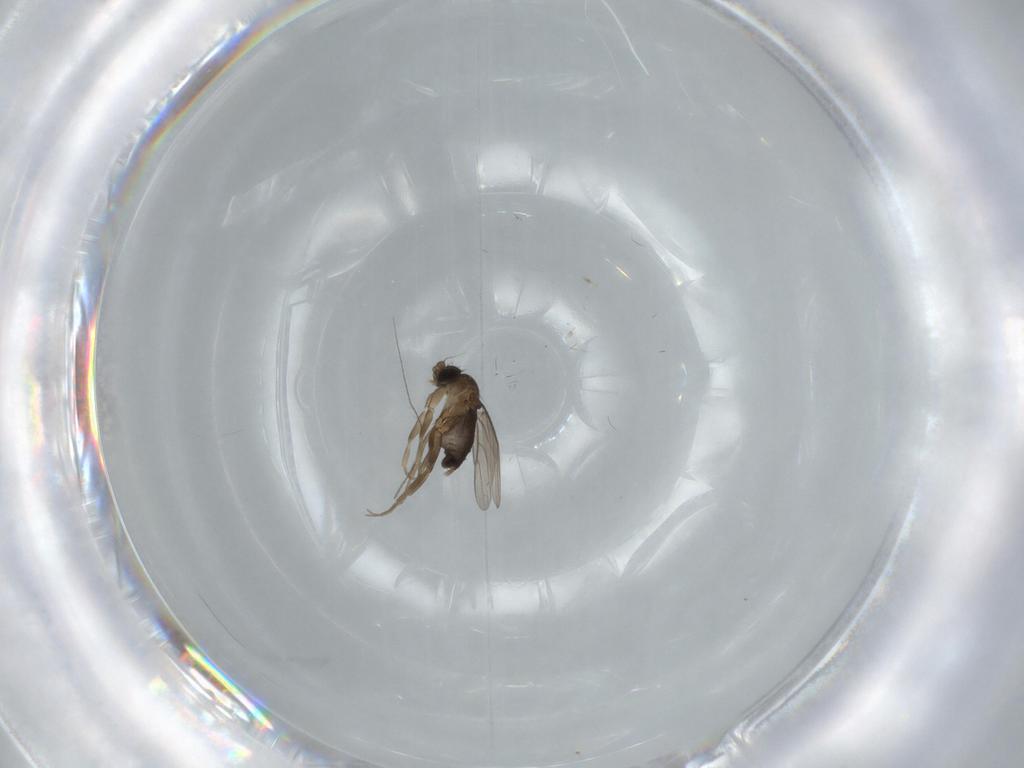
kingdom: Animalia
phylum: Arthropoda
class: Insecta
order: Diptera
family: Phoridae
